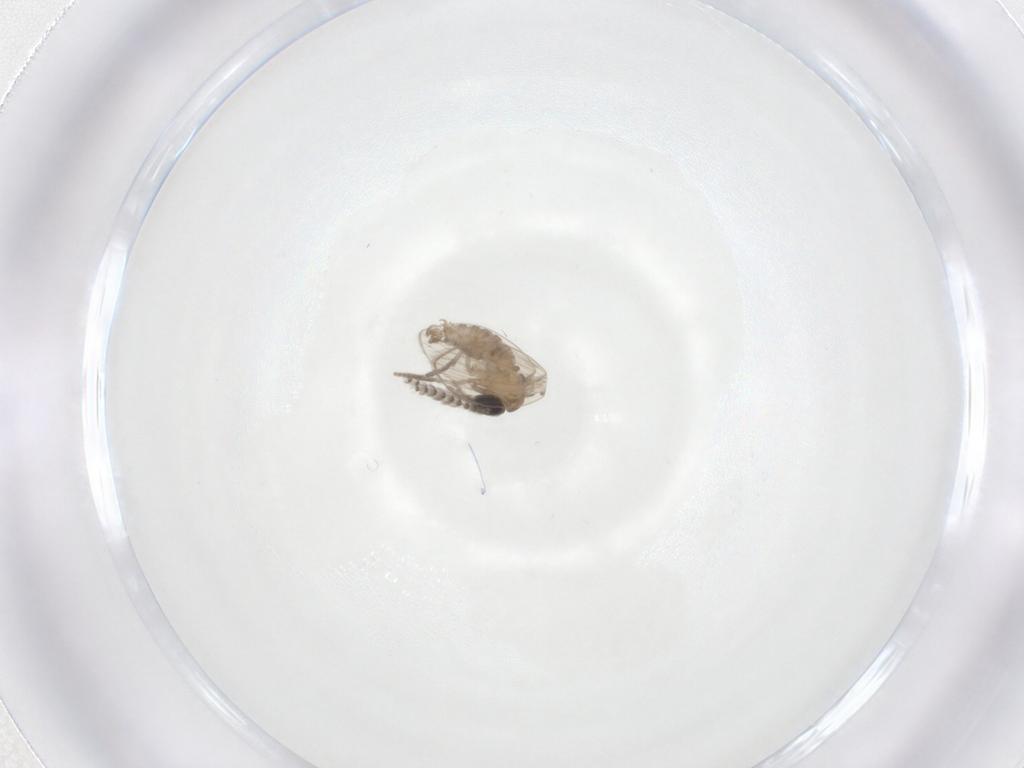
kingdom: Animalia
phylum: Arthropoda
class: Insecta
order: Diptera
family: Psychodidae
